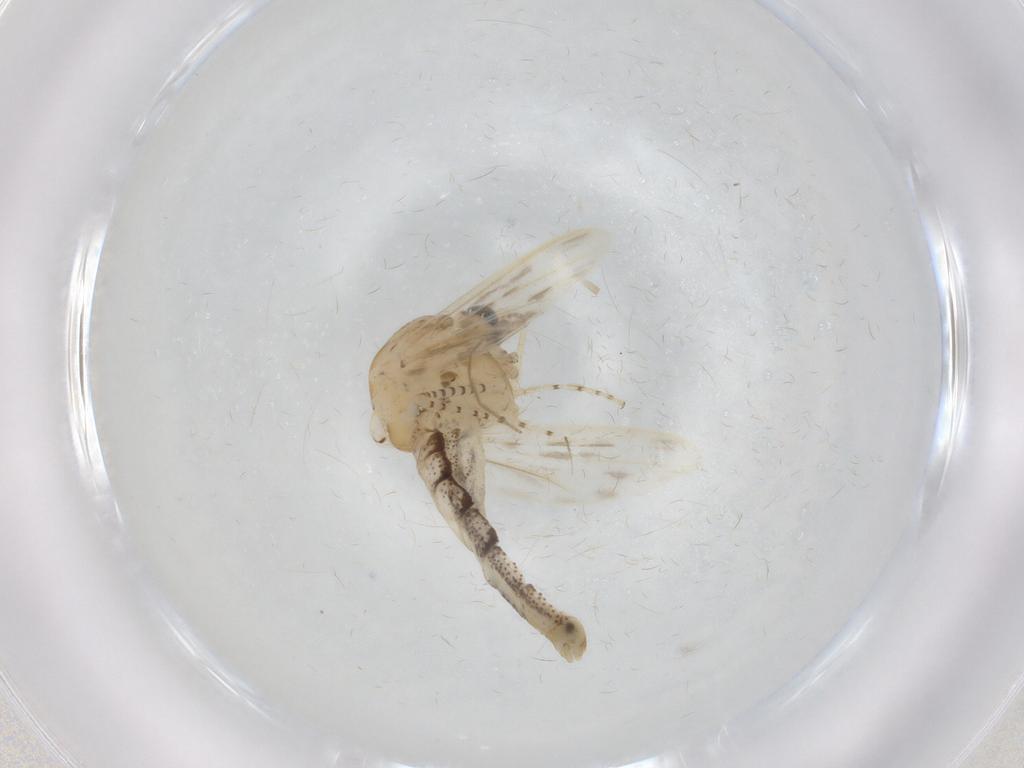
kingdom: Animalia
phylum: Arthropoda
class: Insecta
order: Diptera
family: Chaoboridae
